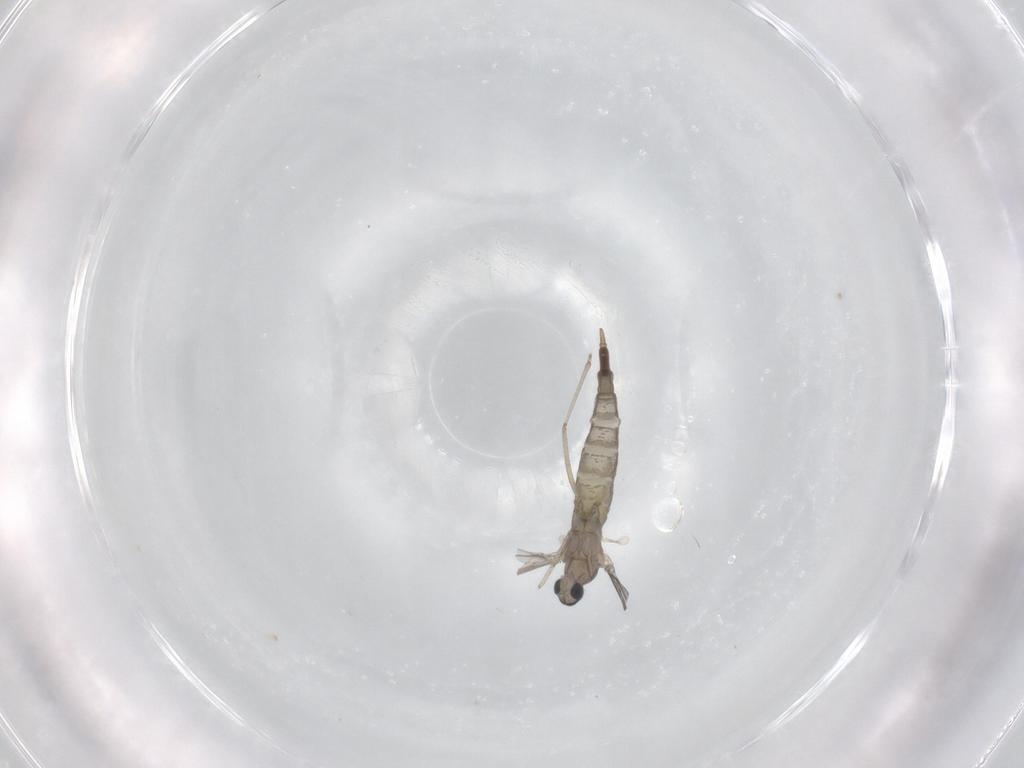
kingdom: Animalia
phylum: Arthropoda
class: Insecta
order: Diptera
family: Cecidomyiidae
